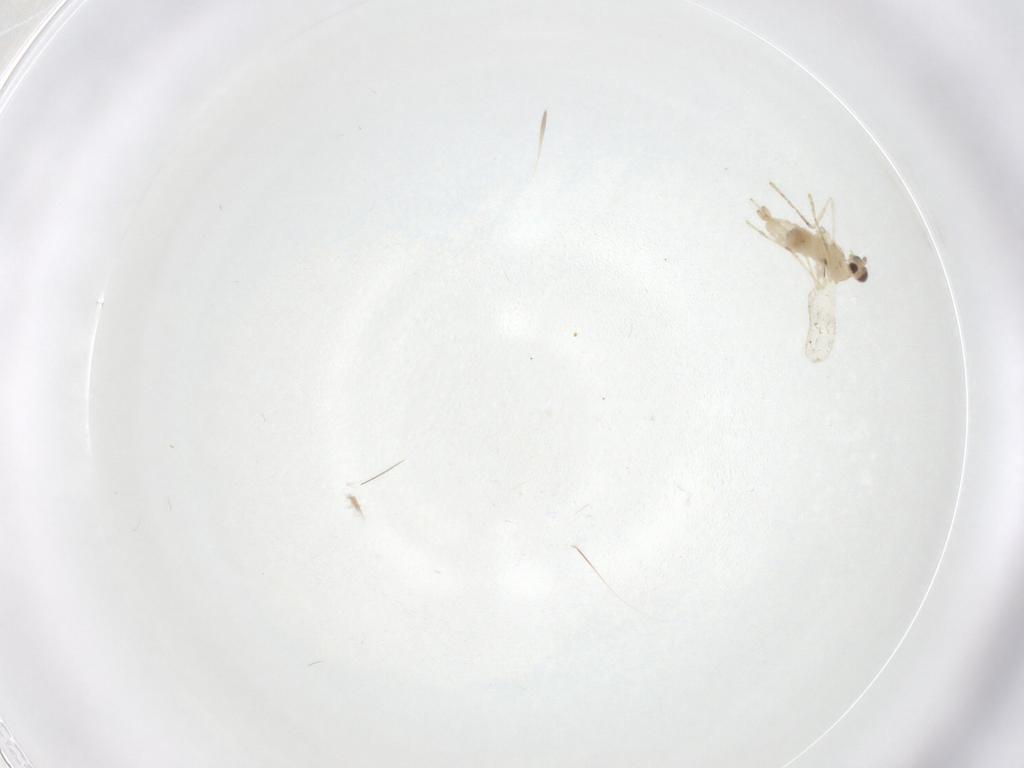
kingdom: Animalia
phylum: Arthropoda
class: Insecta
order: Diptera
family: Cecidomyiidae
